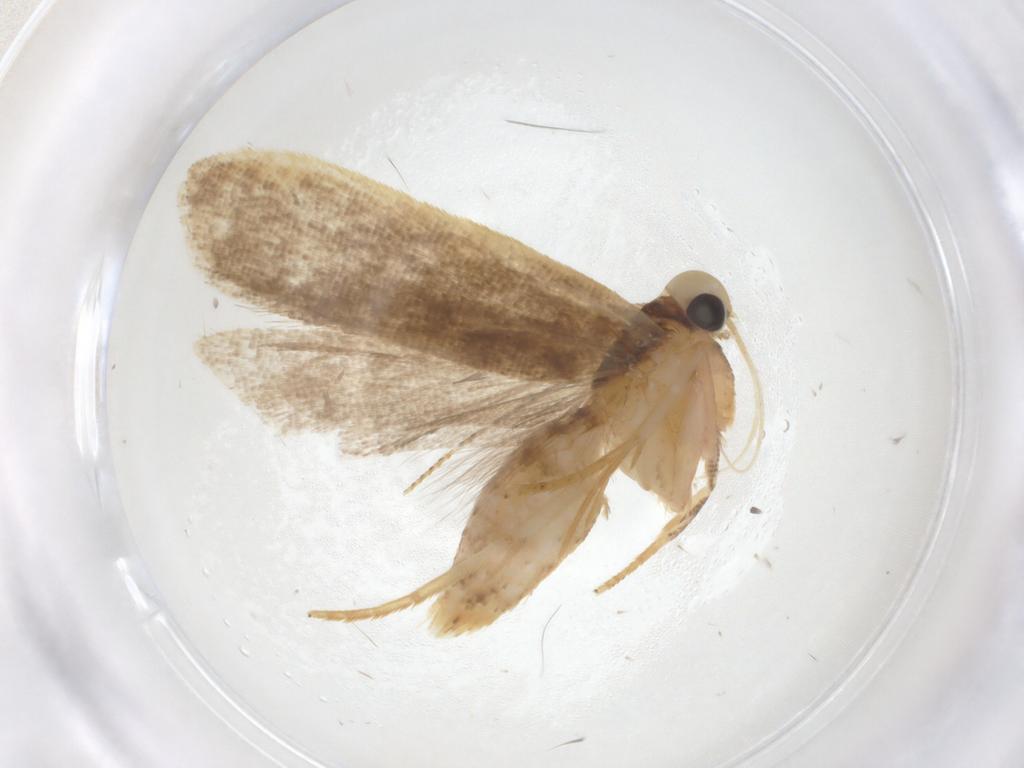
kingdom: Animalia
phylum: Arthropoda
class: Insecta
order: Lepidoptera
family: Gelechiidae
